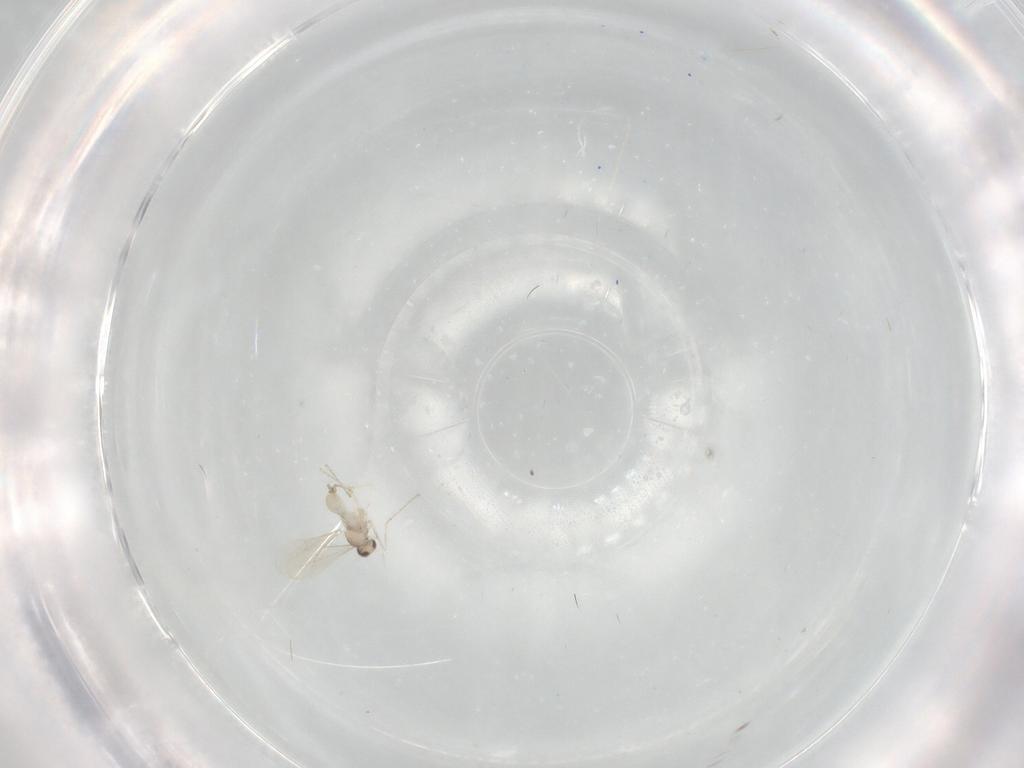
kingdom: Animalia
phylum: Arthropoda
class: Insecta
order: Diptera
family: Cecidomyiidae
